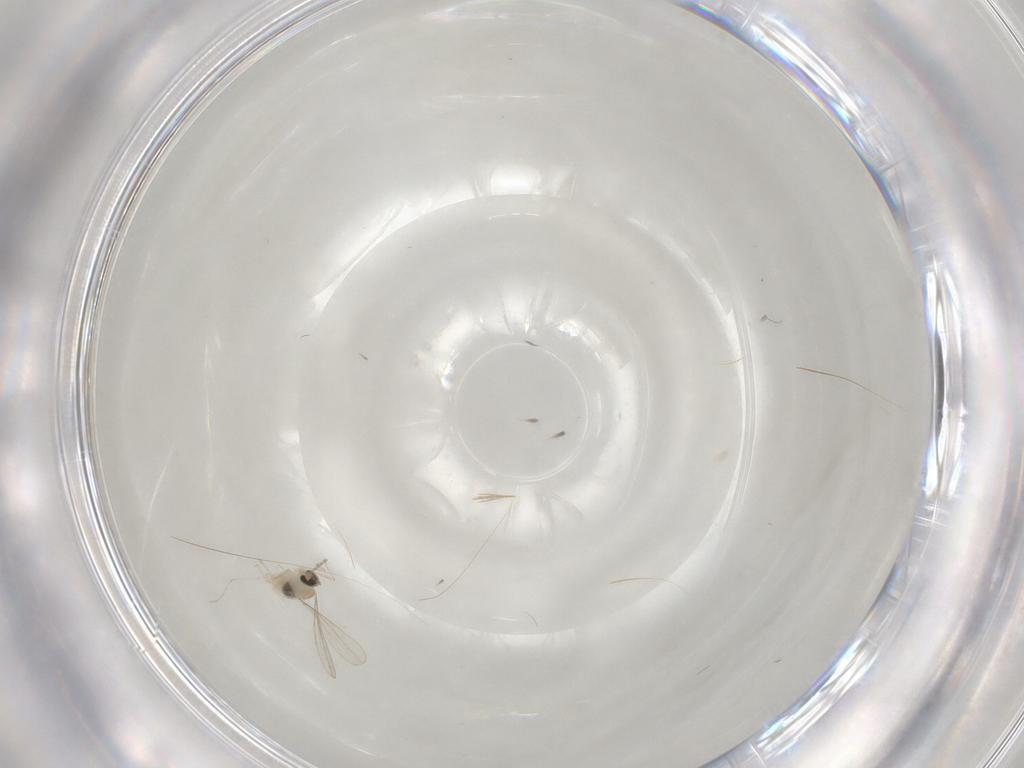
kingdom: Animalia
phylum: Arthropoda
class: Insecta
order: Diptera
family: Cecidomyiidae
